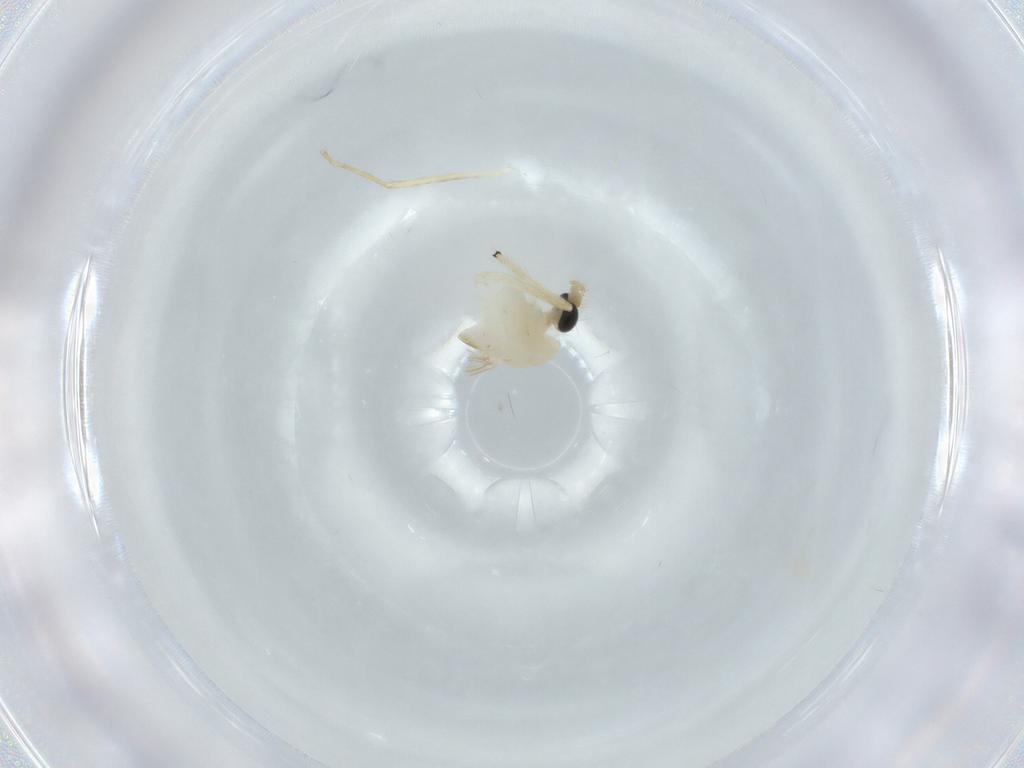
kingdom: Animalia
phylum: Arthropoda
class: Insecta
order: Diptera
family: Chironomidae
